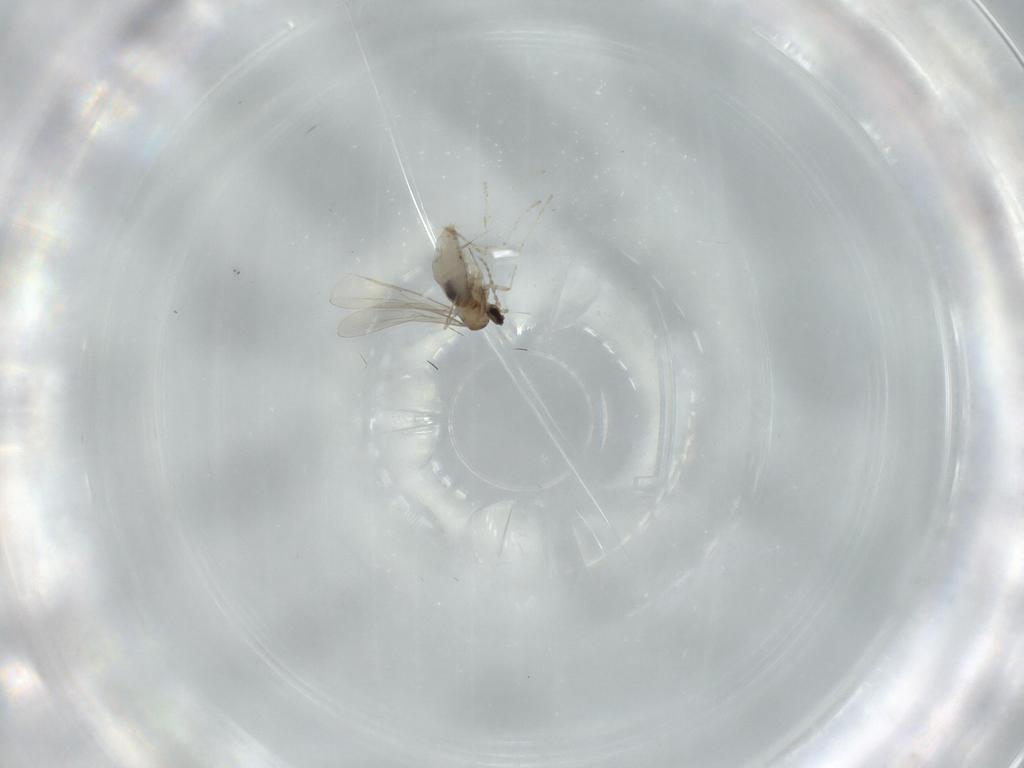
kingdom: Animalia
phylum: Arthropoda
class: Insecta
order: Diptera
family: Cecidomyiidae
